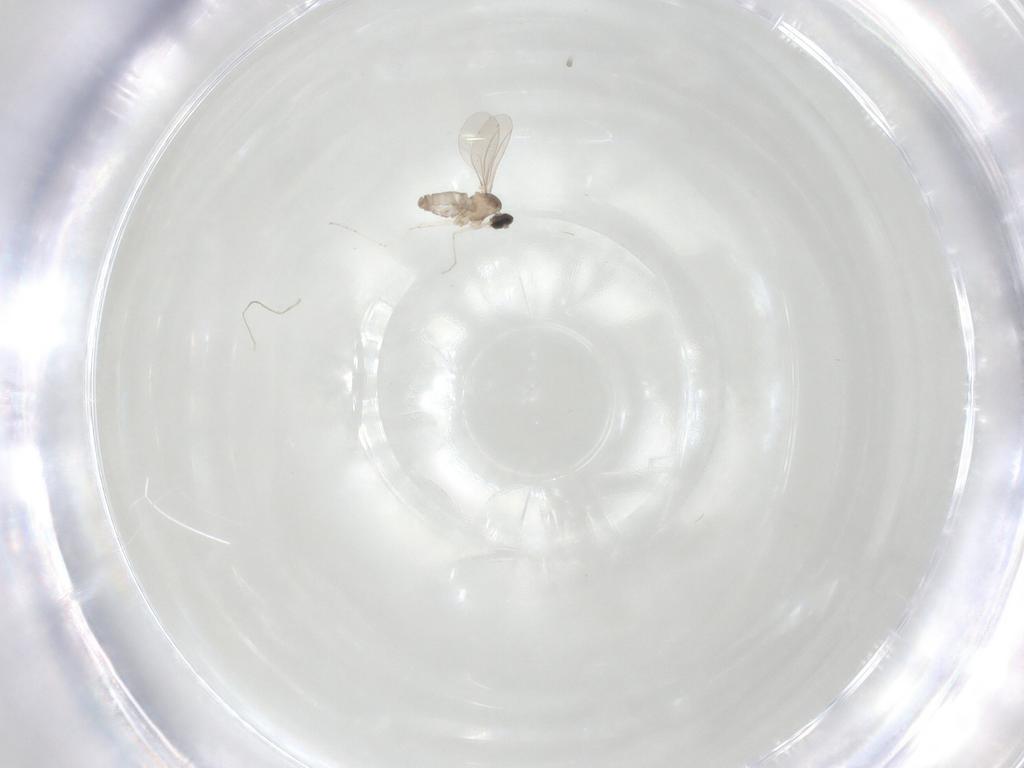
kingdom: Animalia
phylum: Arthropoda
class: Insecta
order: Diptera
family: Cecidomyiidae
